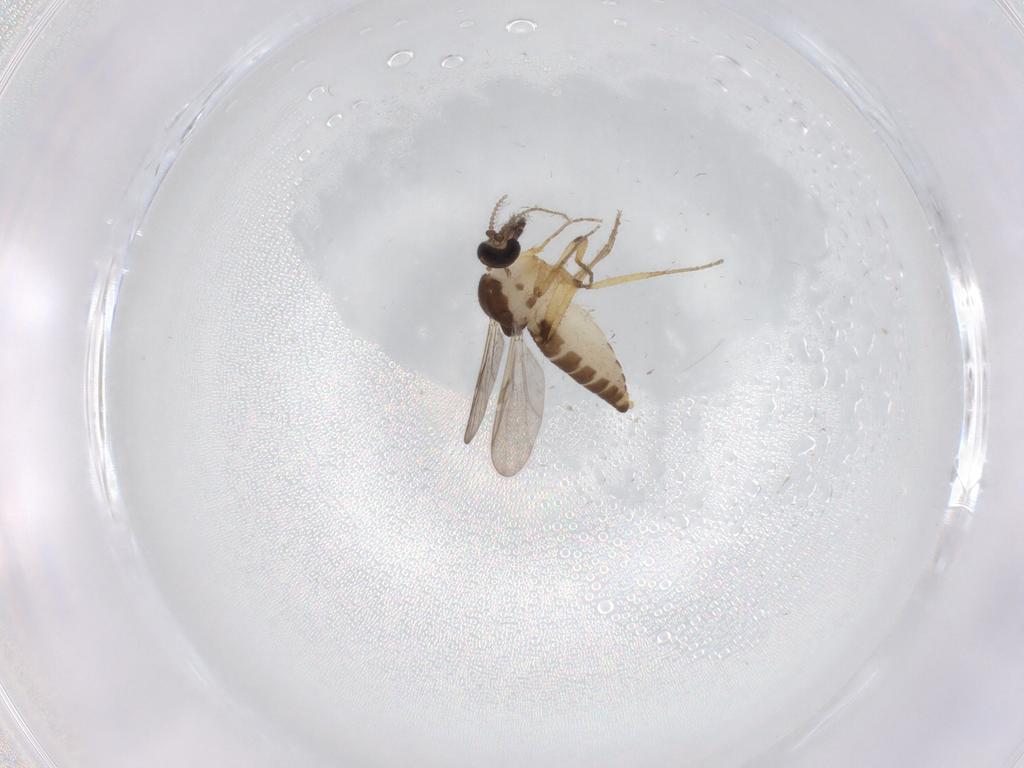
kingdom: Animalia
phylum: Arthropoda
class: Insecta
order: Diptera
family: Ceratopogonidae
